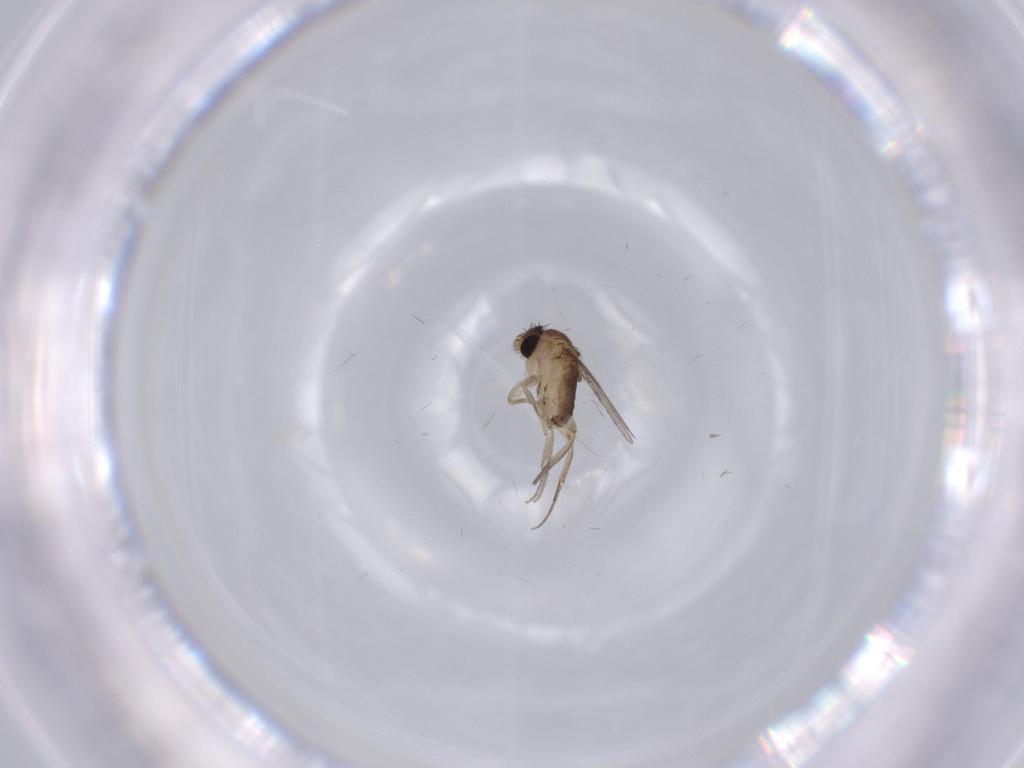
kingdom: Animalia
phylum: Arthropoda
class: Insecta
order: Diptera
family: Phoridae
